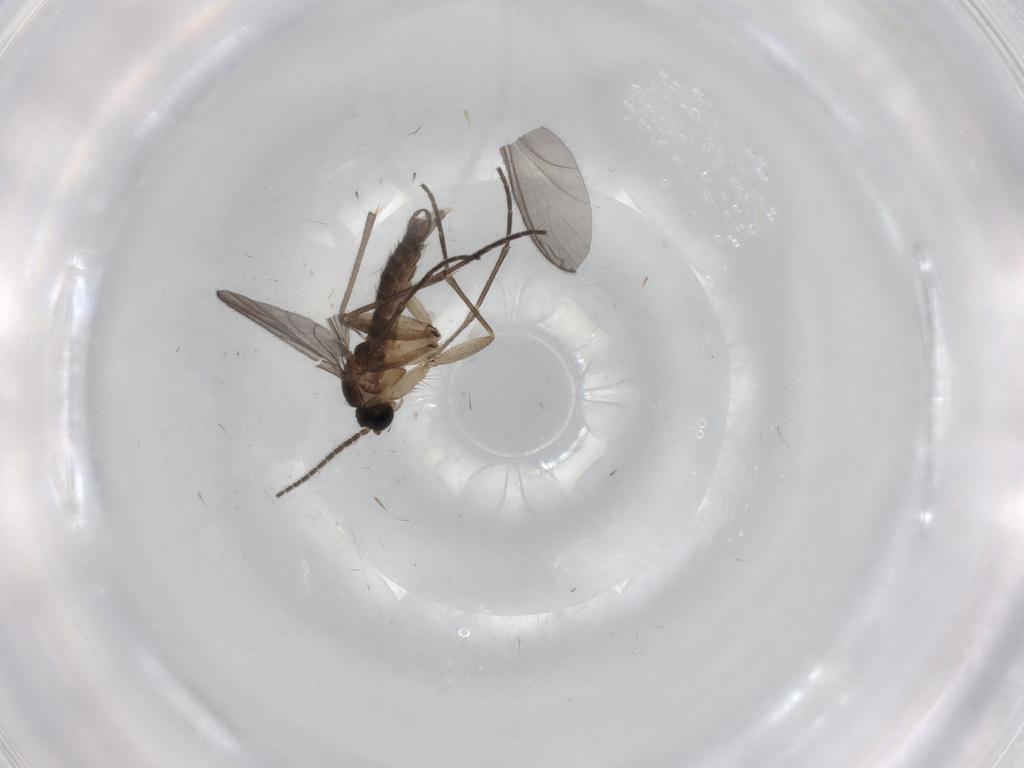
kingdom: Animalia
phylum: Arthropoda
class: Insecta
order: Diptera
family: Sciaridae
